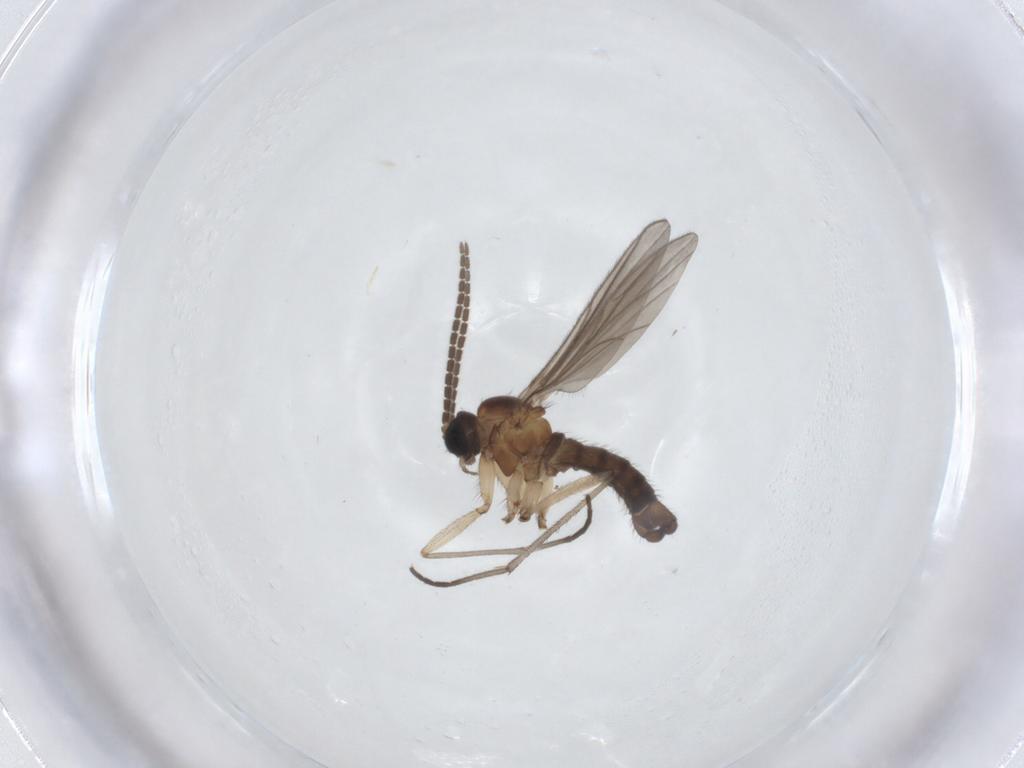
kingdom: Animalia
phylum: Arthropoda
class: Insecta
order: Diptera
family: Sciaridae
